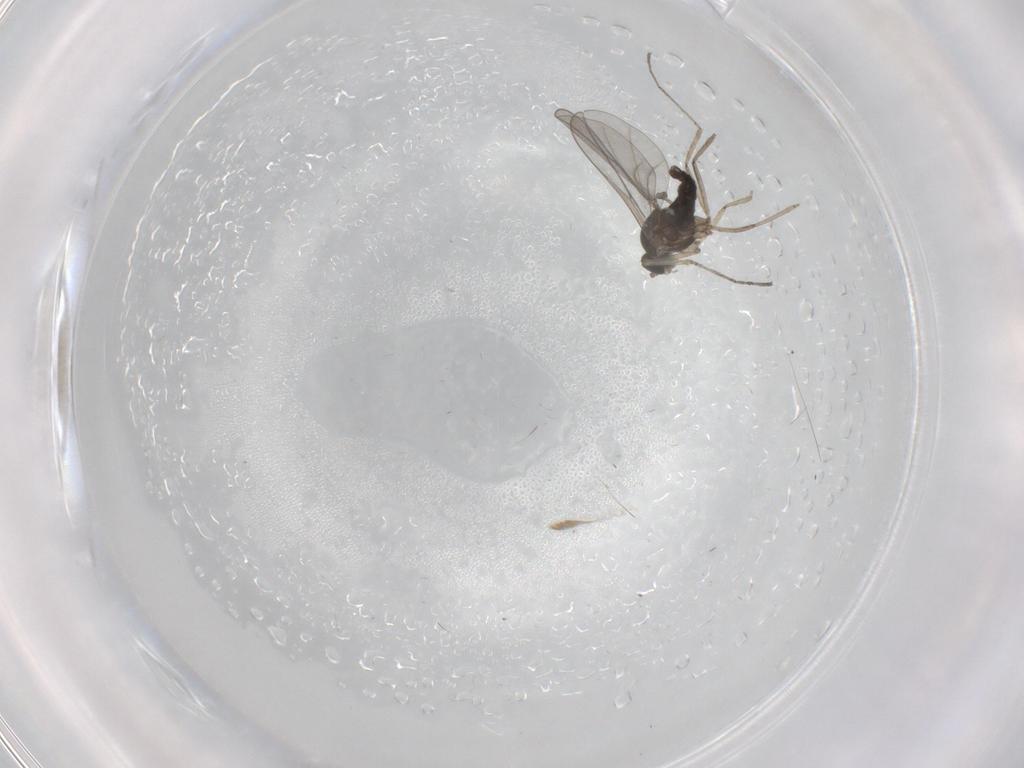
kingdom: Animalia
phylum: Arthropoda
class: Insecta
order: Diptera
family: Cecidomyiidae
